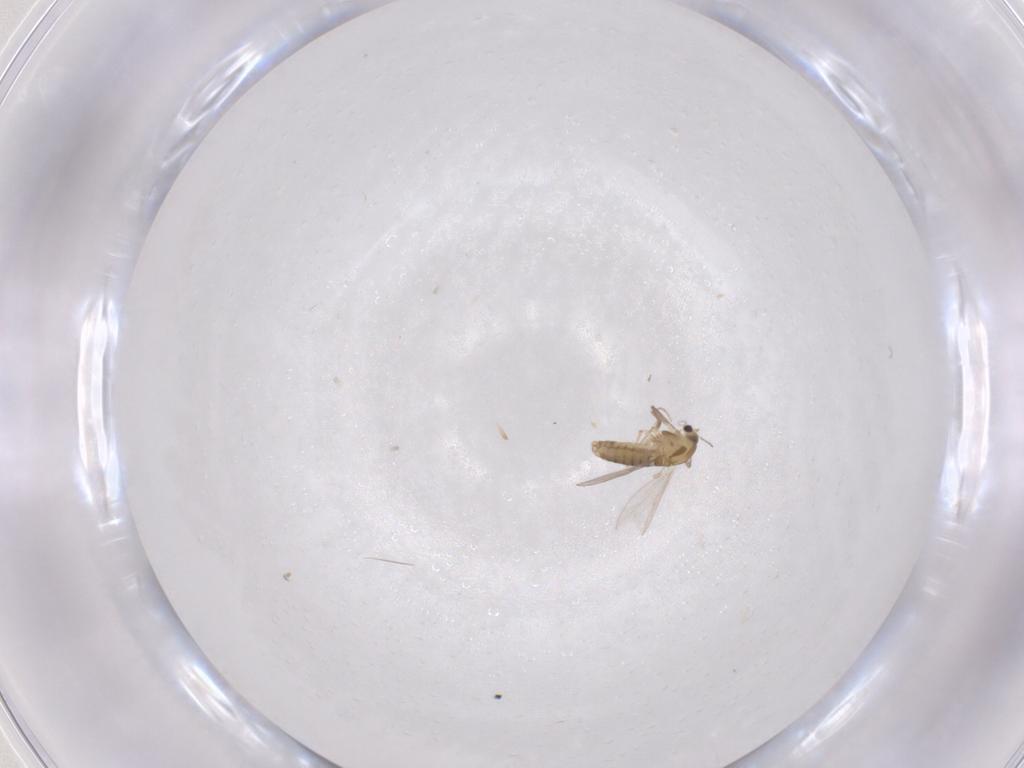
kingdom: Animalia
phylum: Arthropoda
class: Insecta
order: Diptera
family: Chironomidae
